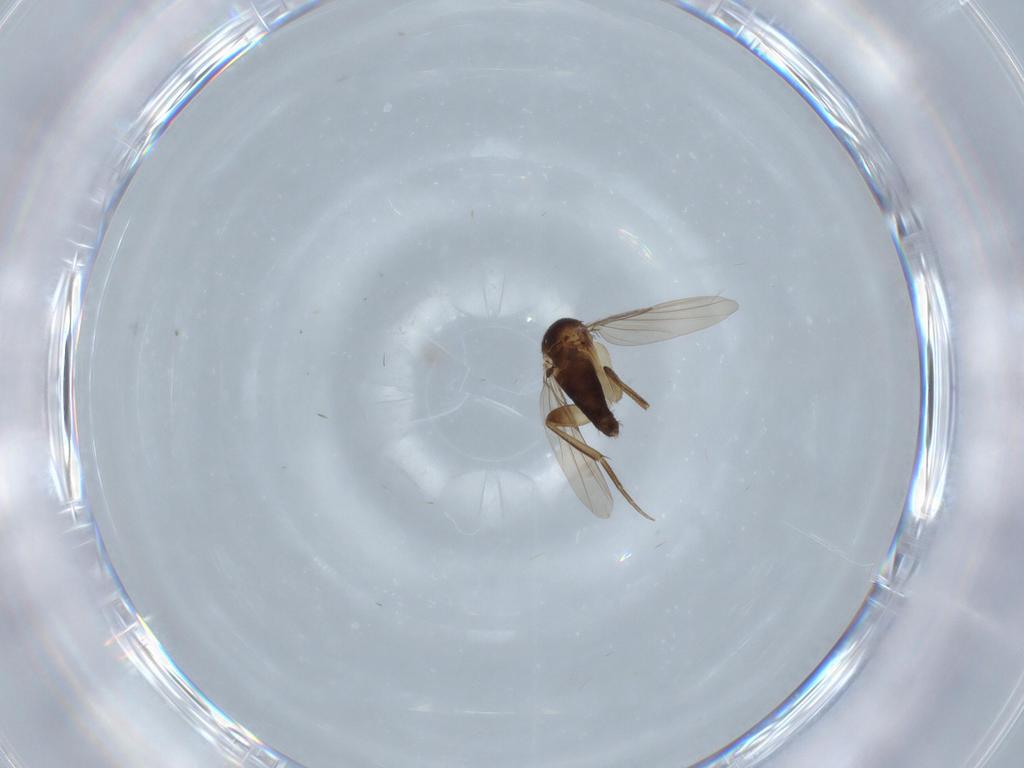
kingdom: Animalia
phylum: Arthropoda
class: Insecta
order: Diptera
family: Phoridae
